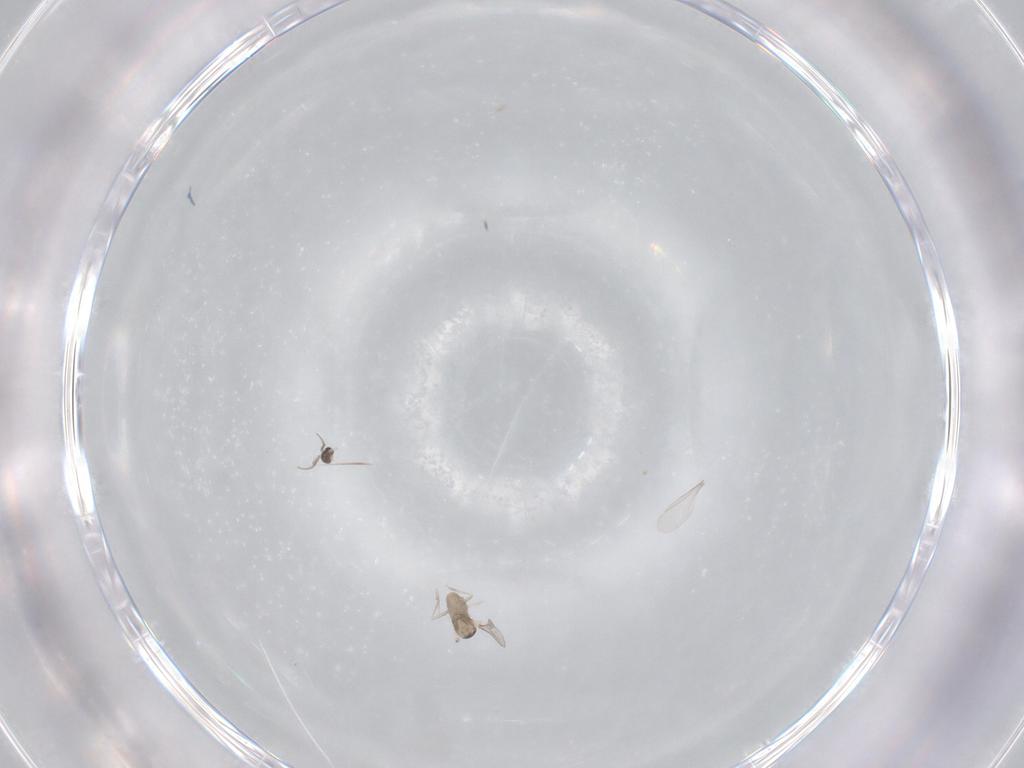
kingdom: Animalia
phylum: Arthropoda
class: Insecta
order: Diptera
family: Cecidomyiidae
